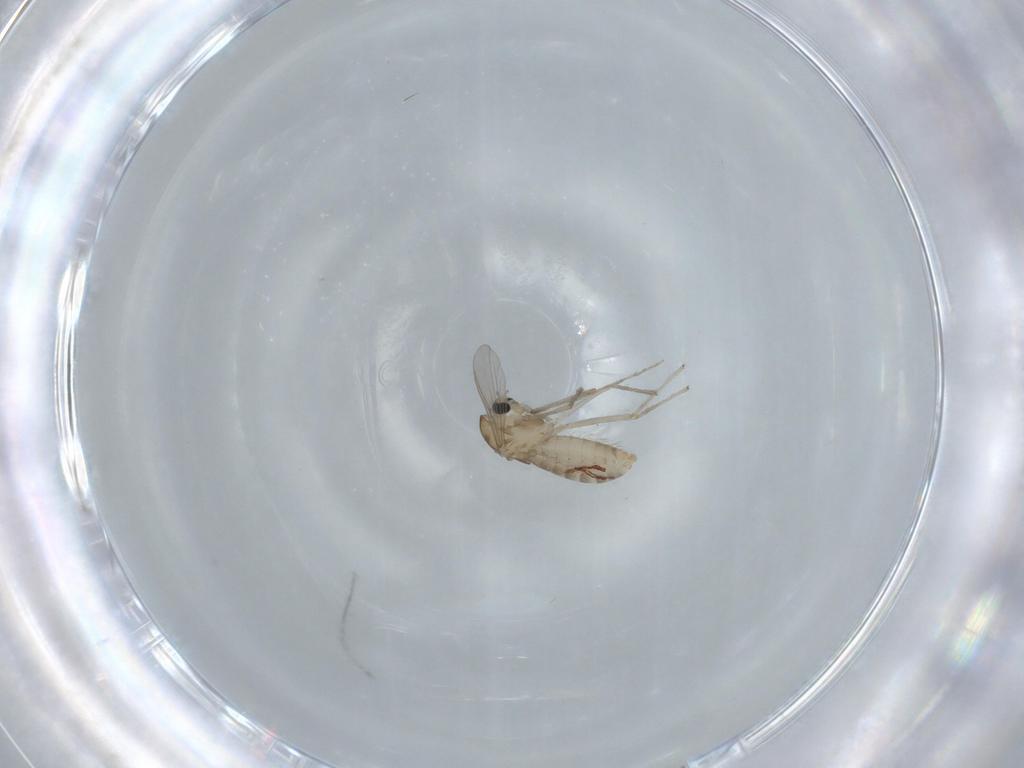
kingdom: Animalia
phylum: Arthropoda
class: Insecta
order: Diptera
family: Chironomidae
